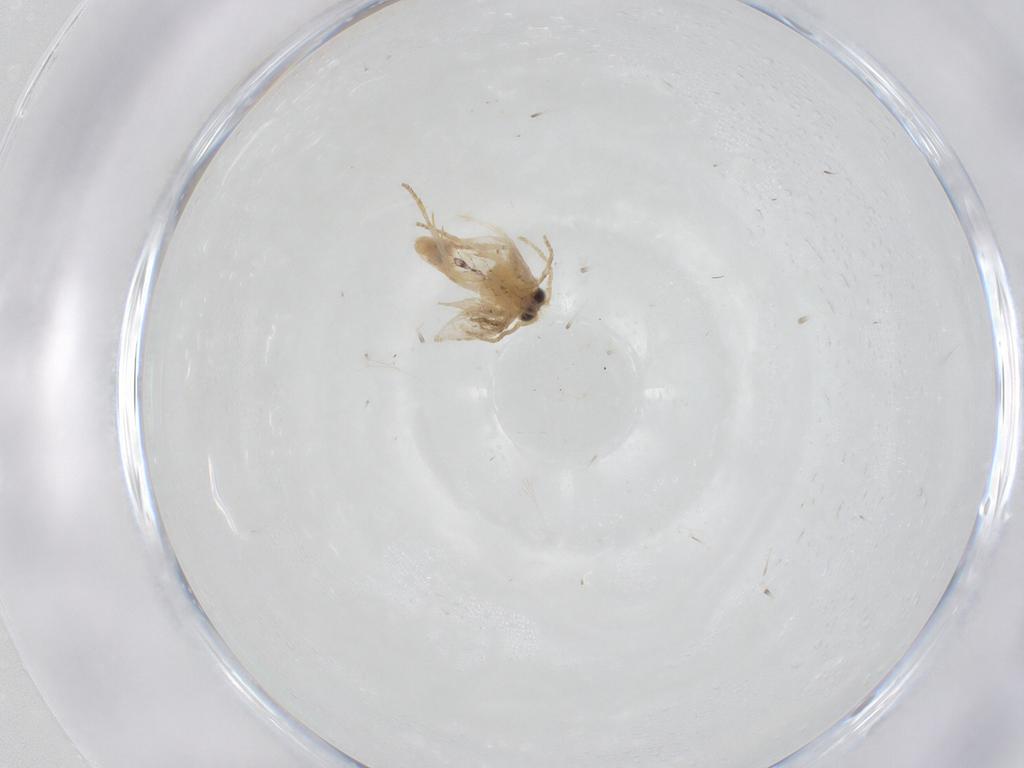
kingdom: Animalia
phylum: Arthropoda
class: Insecta
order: Lepidoptera
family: Nepticulidae
